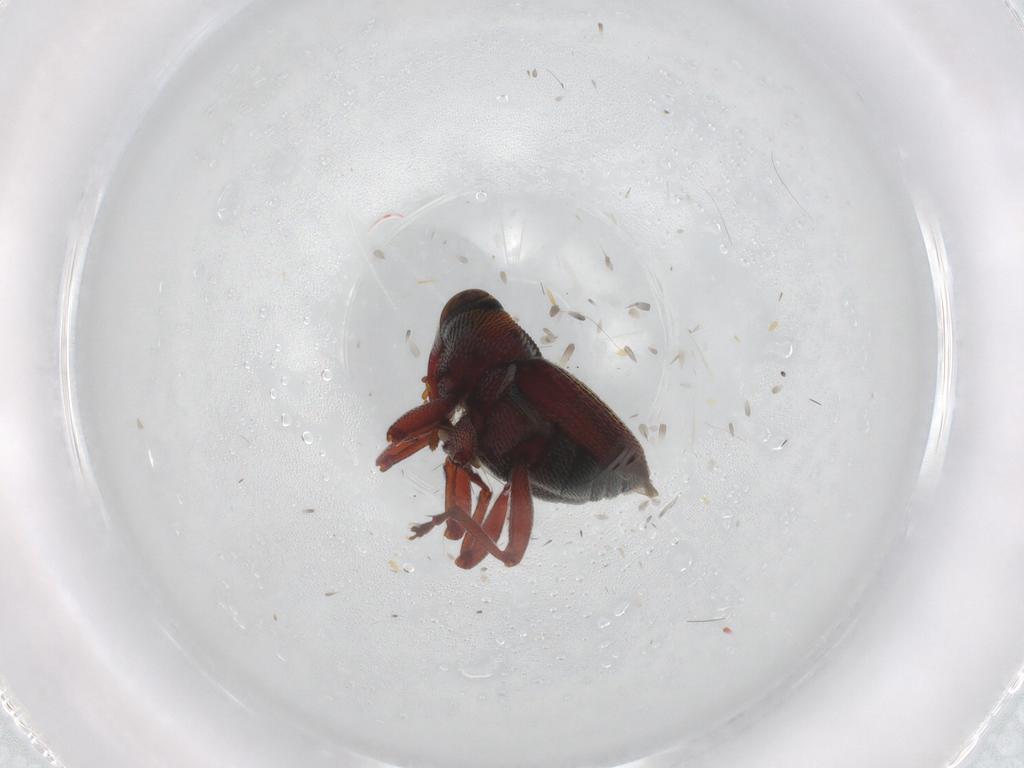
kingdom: Animalia
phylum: Arthropoda
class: Insecta
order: Coleoptera
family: Curculionidae
